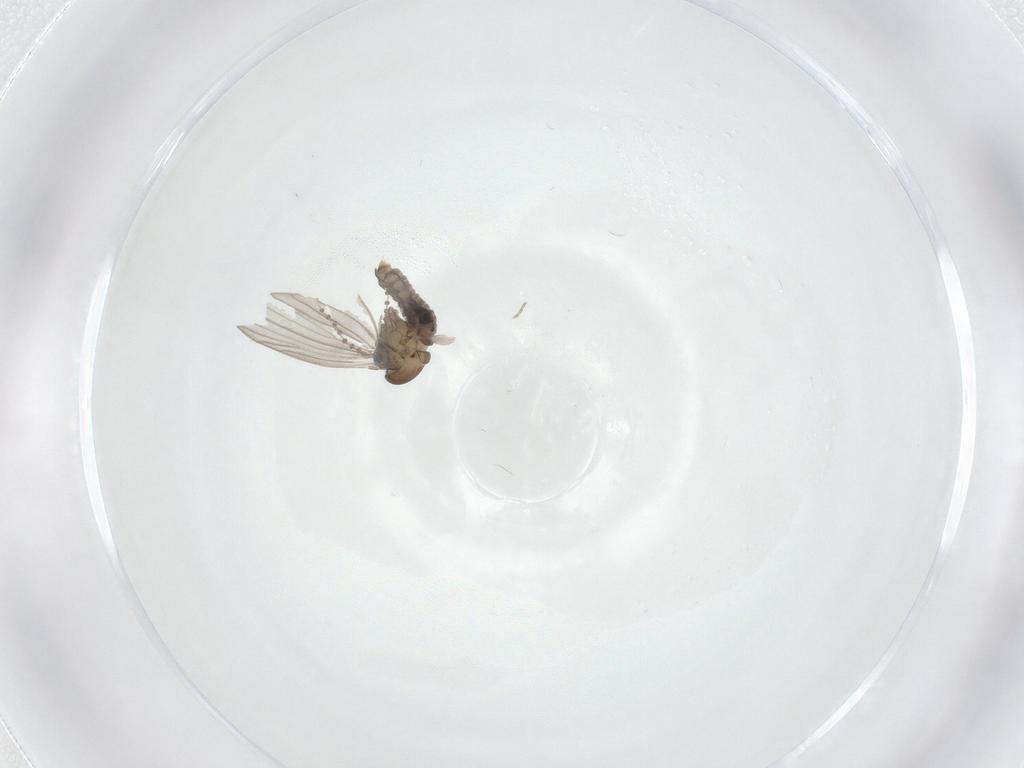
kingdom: Animalia
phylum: Arthropoda
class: Insecta
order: Diptera
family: Psychodidae
